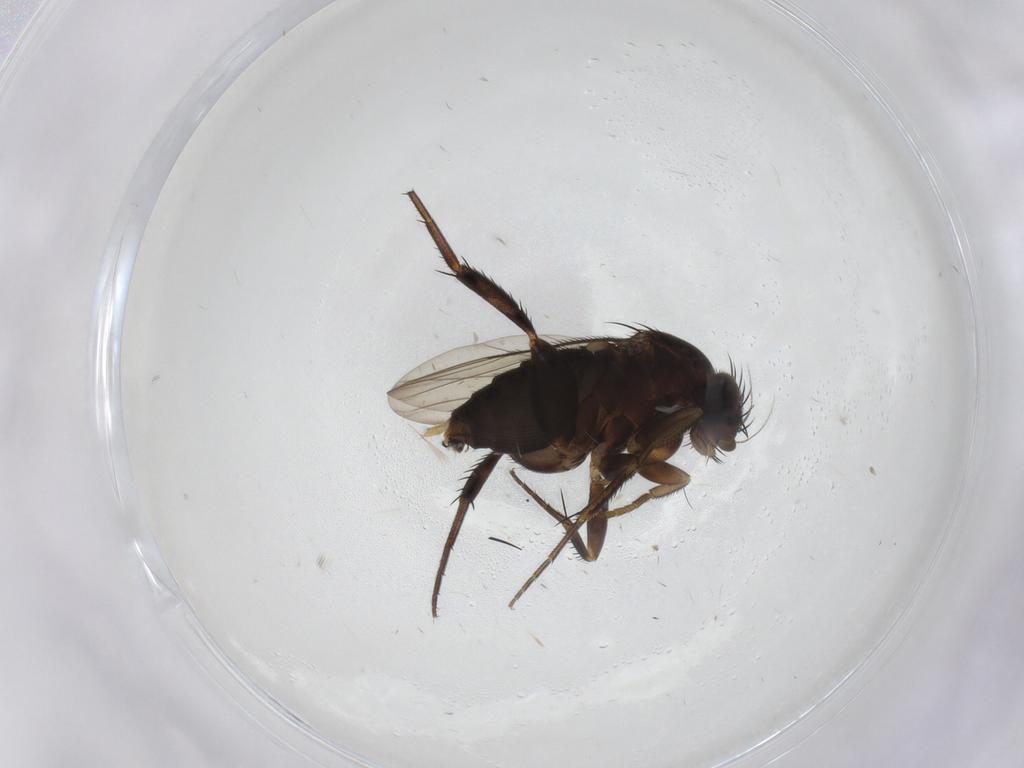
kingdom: Animalia
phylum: Arthropoda
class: Insecta
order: Diptera
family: Phoridae
